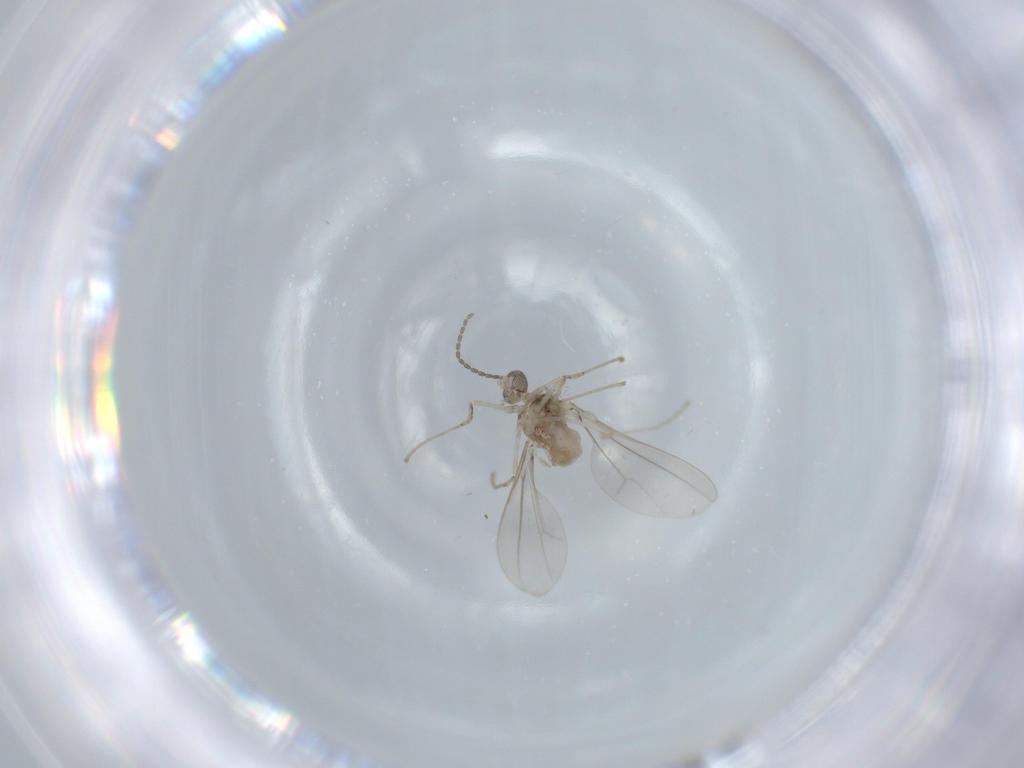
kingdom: Animalia
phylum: Arthropoda
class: Insecta
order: Diptera
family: Cecidomyiidae
